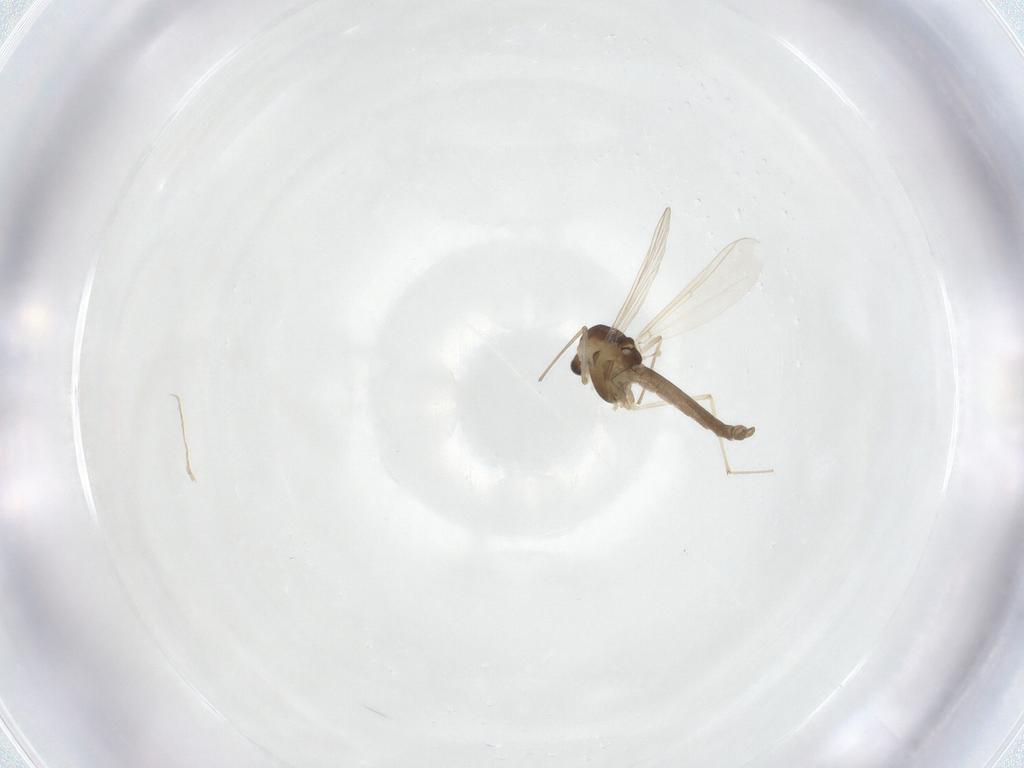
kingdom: Animalia
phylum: Arthropoda
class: Insecta
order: Diptera
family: Chironomidae
